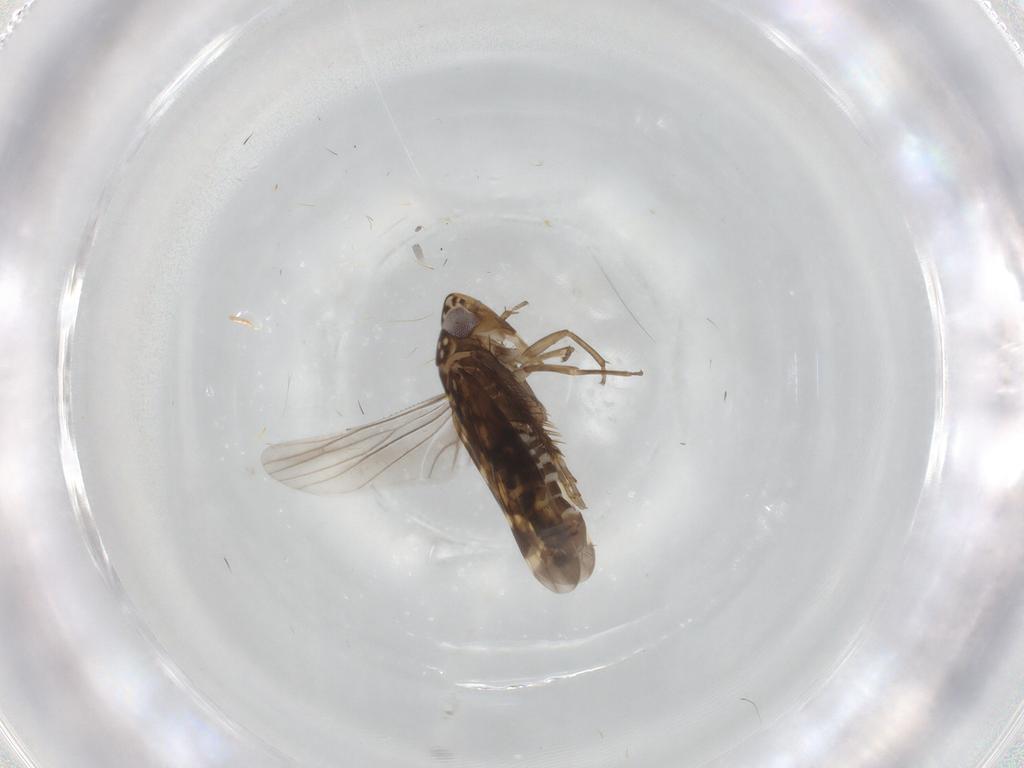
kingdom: Animalia
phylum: Arthropoda
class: Insecta
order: Hemiptera
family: Cicadellidae
